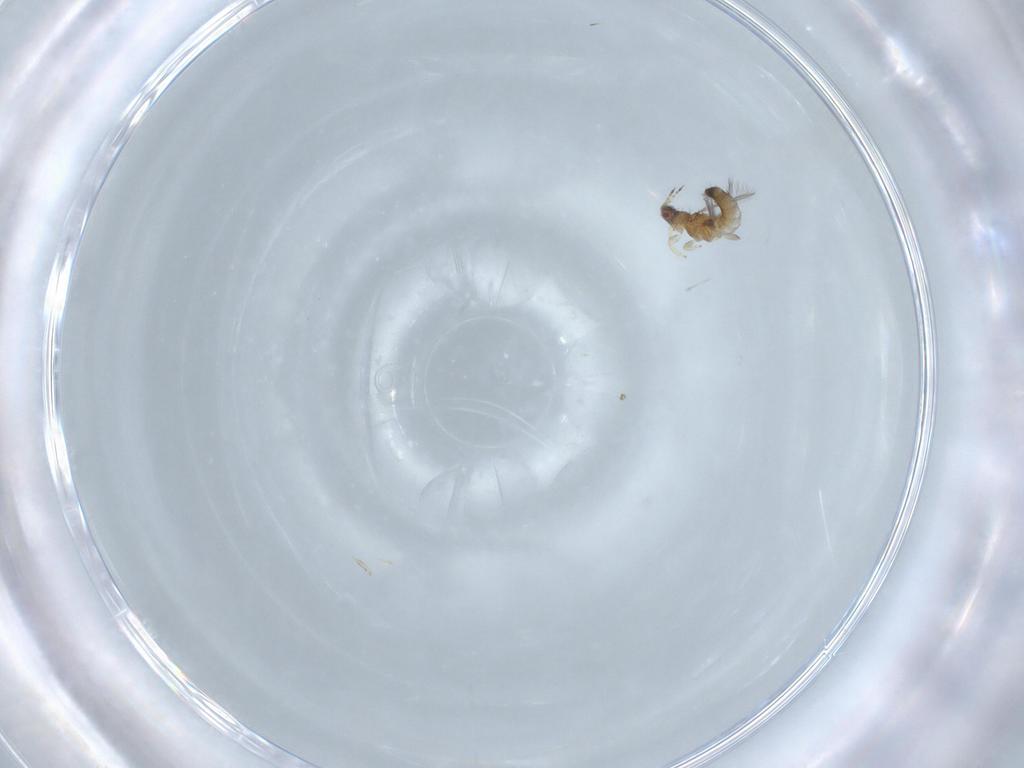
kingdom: Animalia
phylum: Arthropoda
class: Insecta
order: Thysanoptera
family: Thripidae
